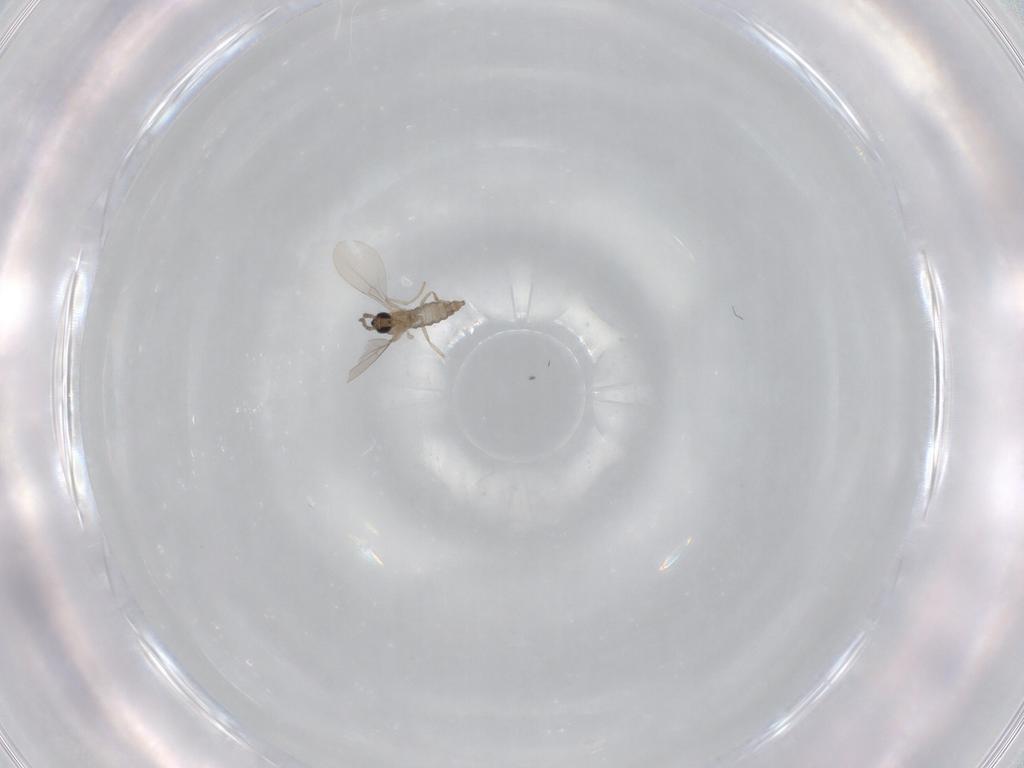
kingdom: Animalia
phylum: Arthropoda
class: Insecta
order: Diptera
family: Cecidomyiidae
